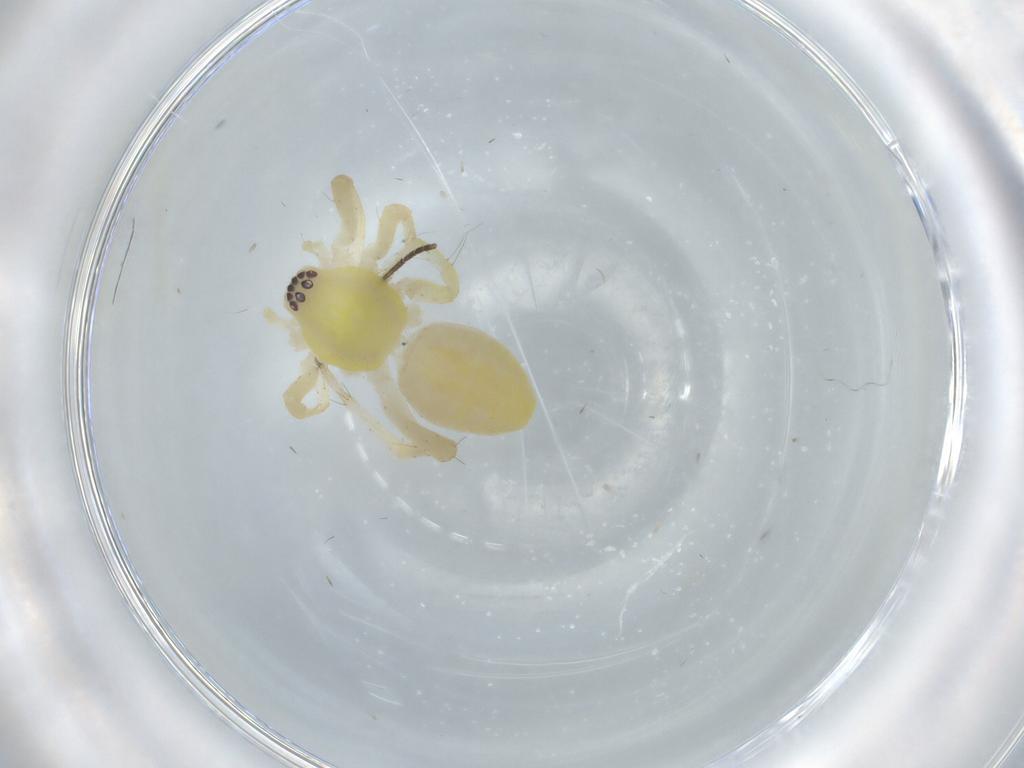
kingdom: Animalia
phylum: Arthropoda
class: Arachnida
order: Araneae
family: Anyphaenidae
